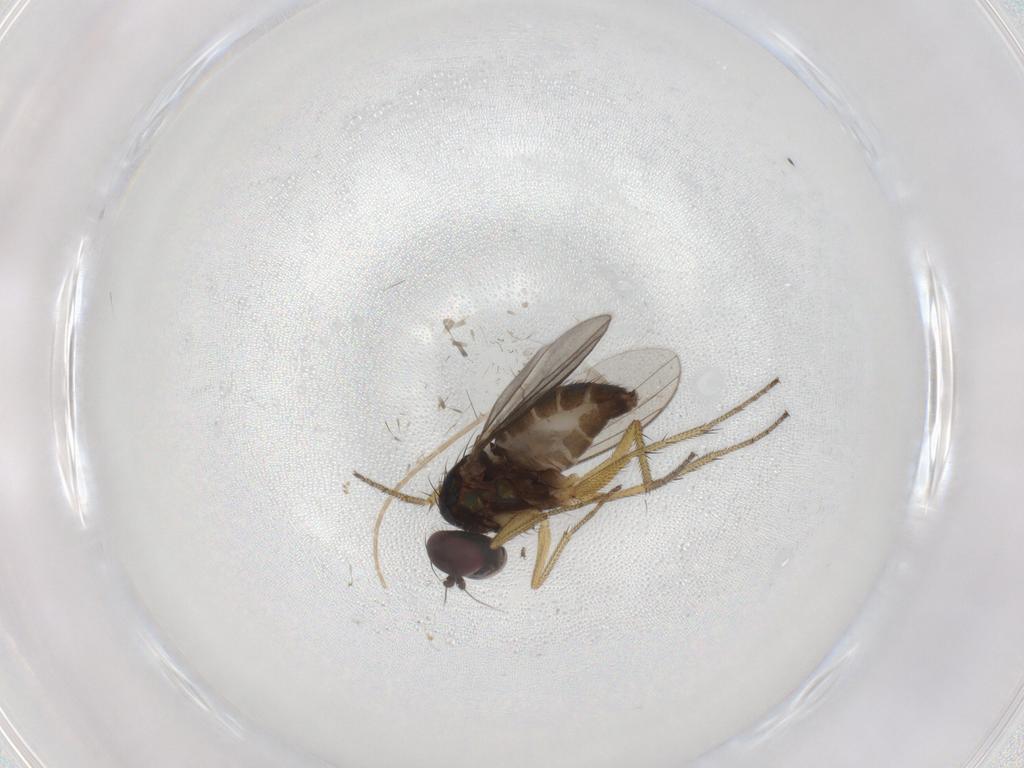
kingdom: Animalia
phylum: Arthropoda
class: Insecta
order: Diptera
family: Dolichopodidae
